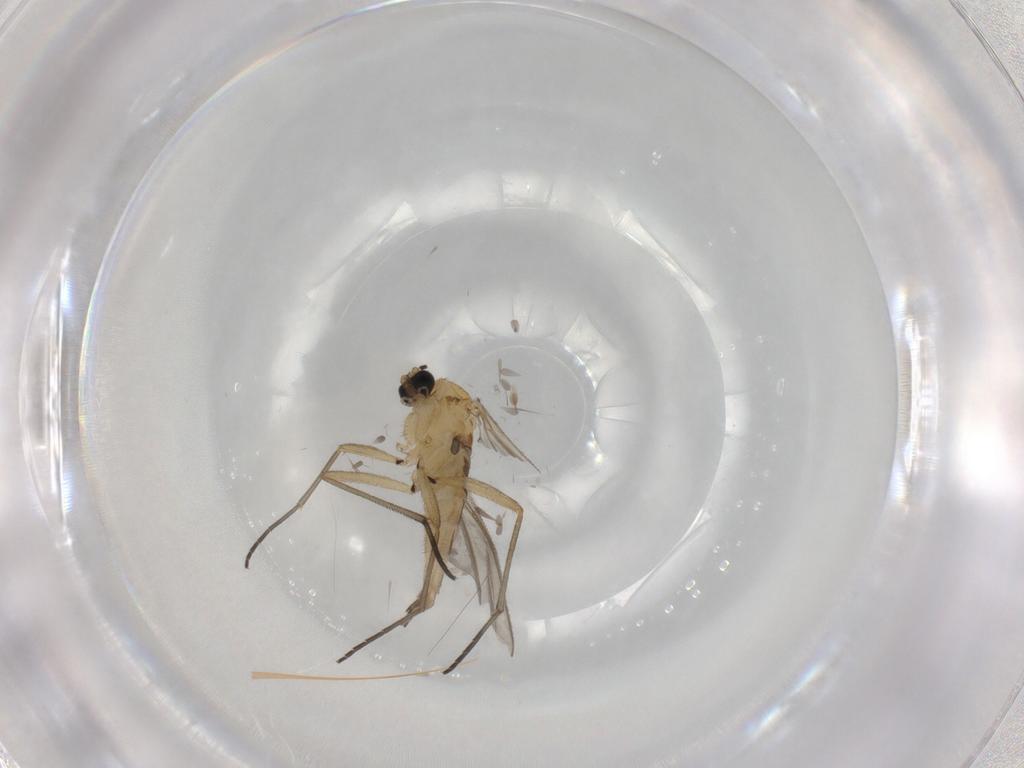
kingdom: Animalia
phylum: Arthropoda
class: Insecta
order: Diptera
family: Sciaridae
